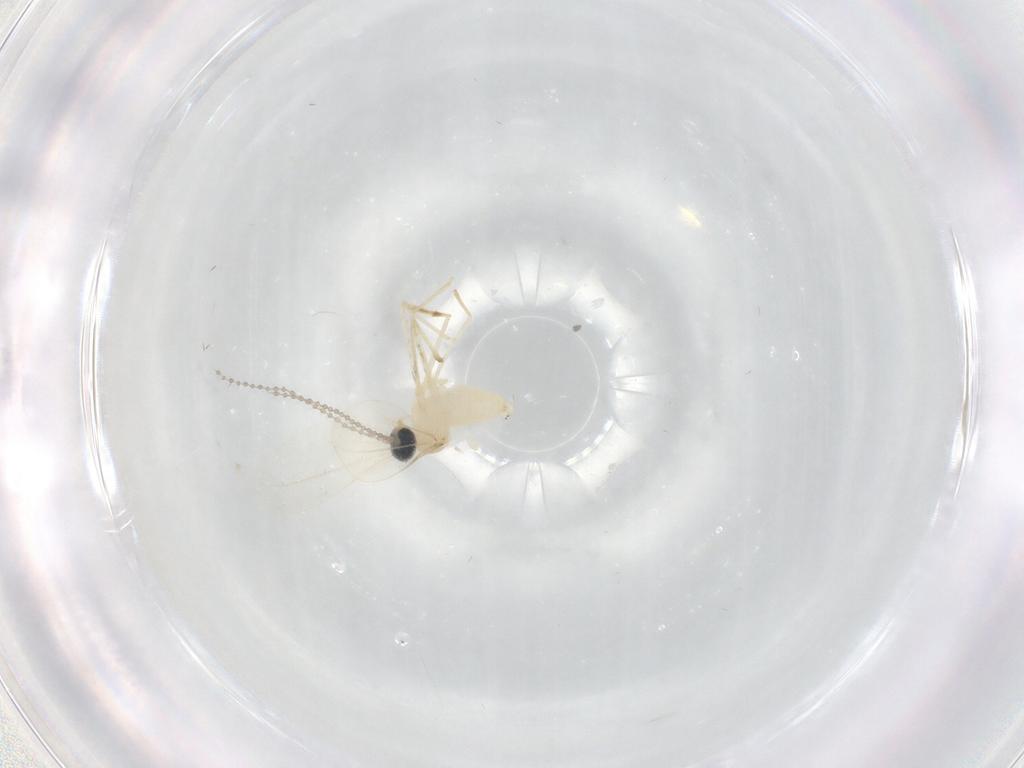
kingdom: Animalia
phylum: Arthropoda
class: Insecta
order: Diptera
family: Cecidomyiidae
